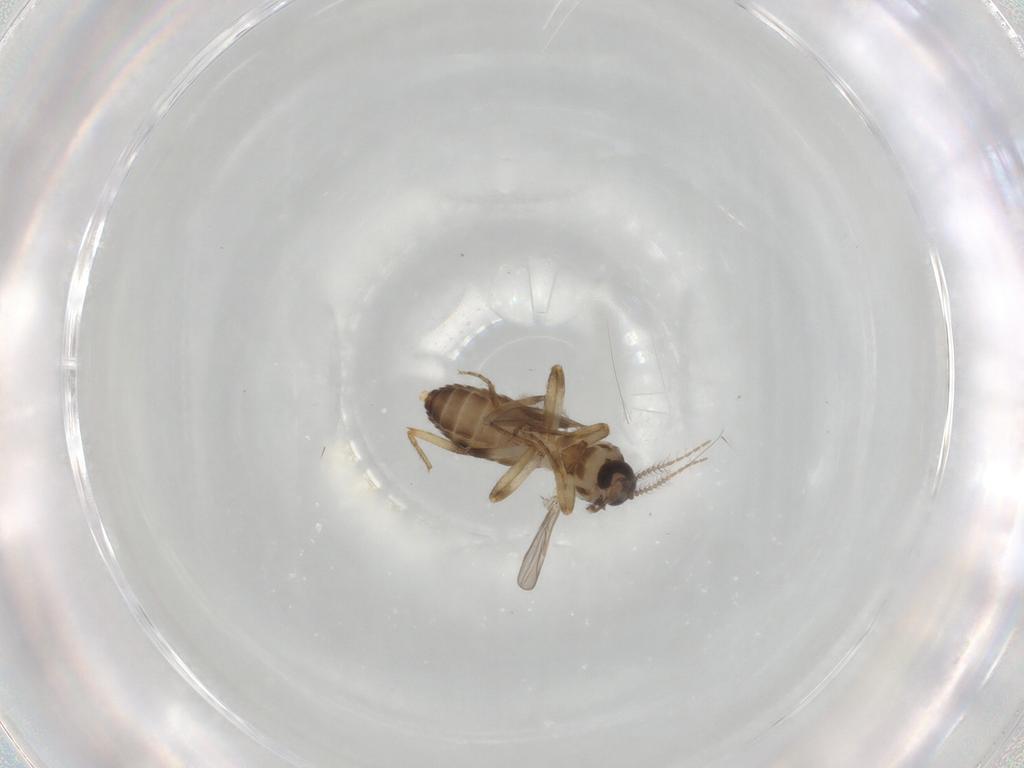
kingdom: Animalia
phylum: Arthropoda
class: Insecta
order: Diptera
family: Ceratopogonidae
